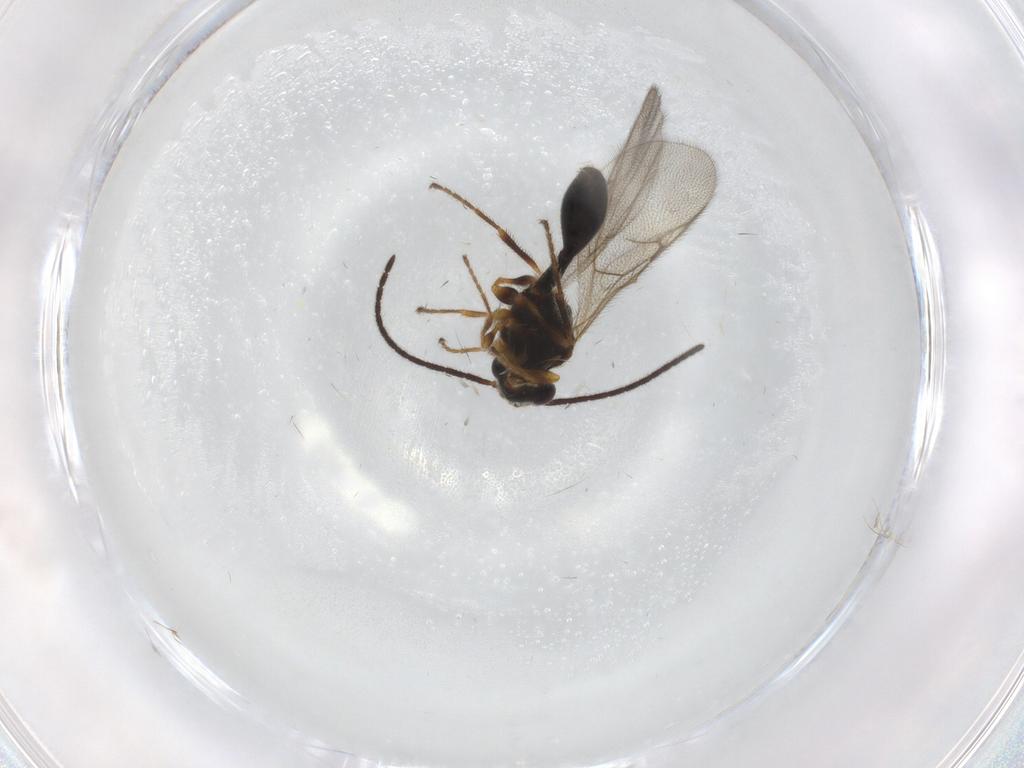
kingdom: Animalia
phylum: Arthropoda
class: Insecta
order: Hymenoptera
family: Diapriidae
